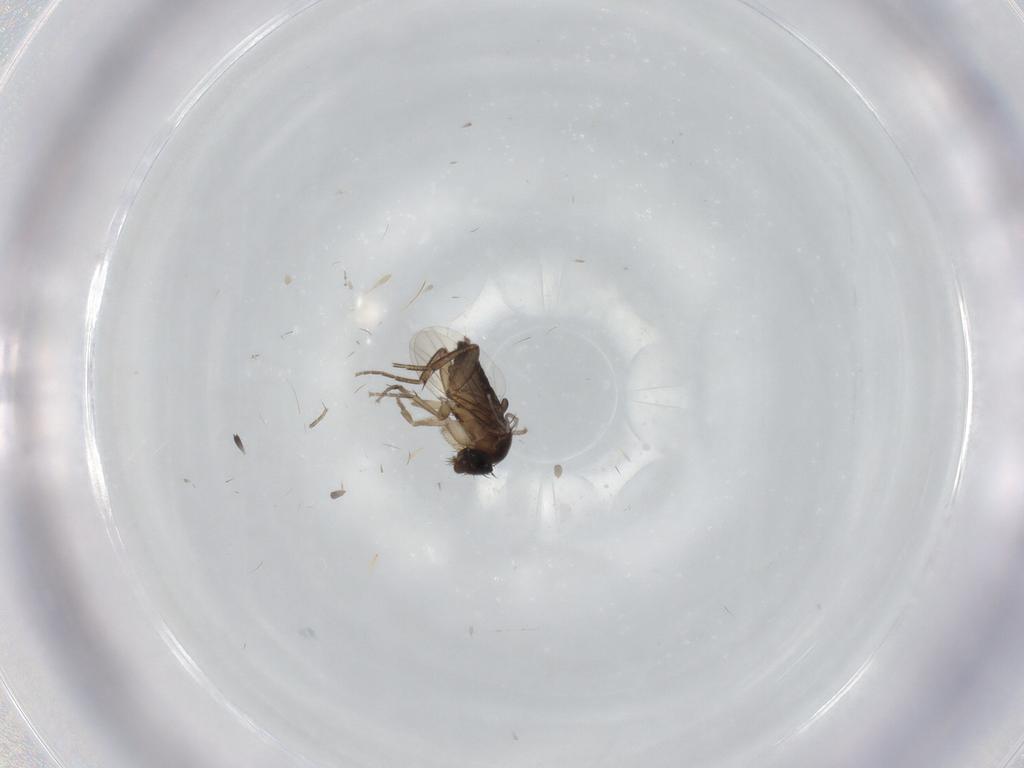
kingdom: Animalia
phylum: Arthropoda
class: Insecta
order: Diptera
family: Phoridae
